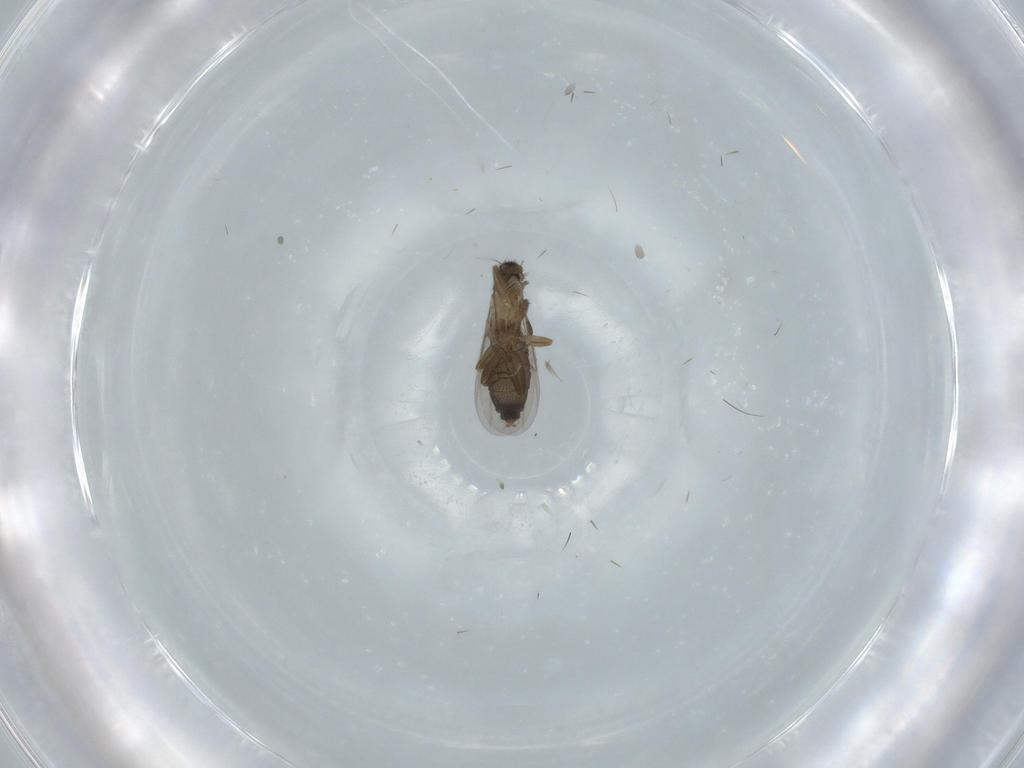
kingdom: Animalia
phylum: Arthropoda
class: Insecta
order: Diptera
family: Phoridae
